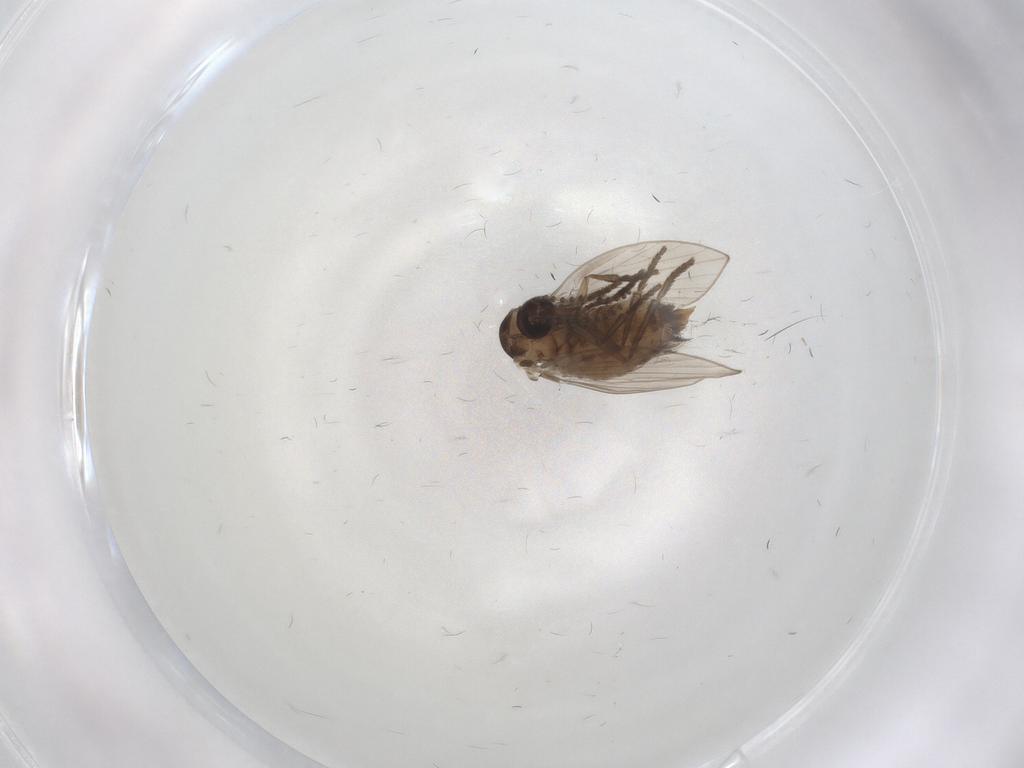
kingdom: Animalia
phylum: Arthropoda
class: Insecta
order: Diptera
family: Psychodidae
